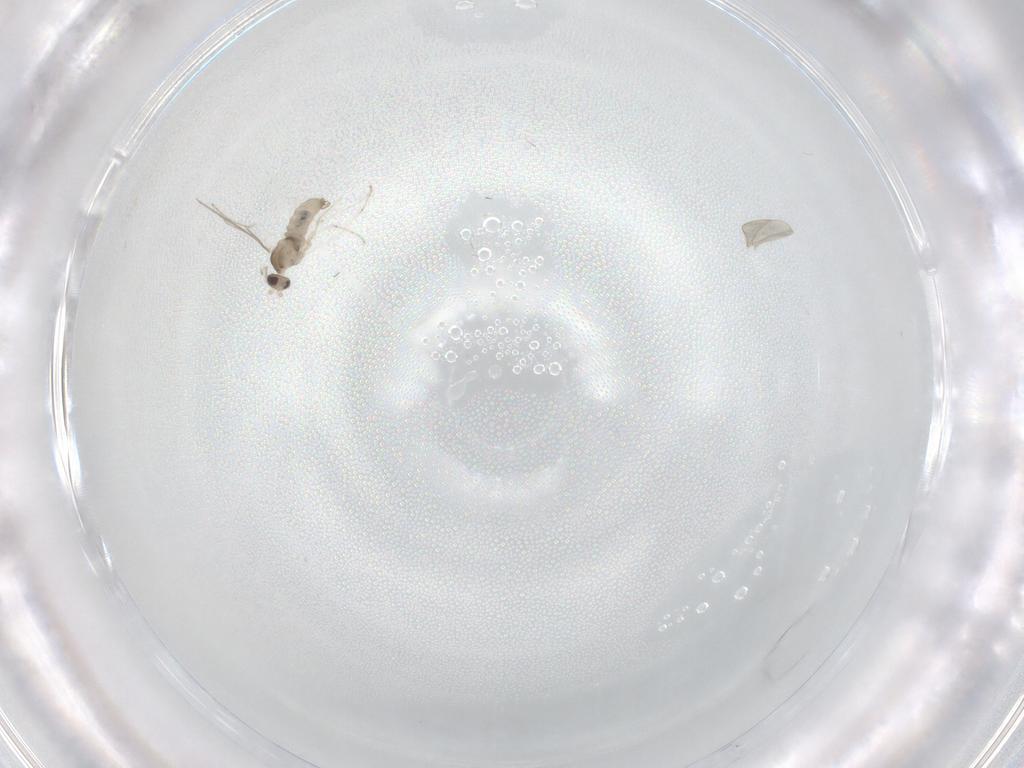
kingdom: Animalia
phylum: Arthropoda
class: Insecta
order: Diptera
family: Cecidomyiidae
